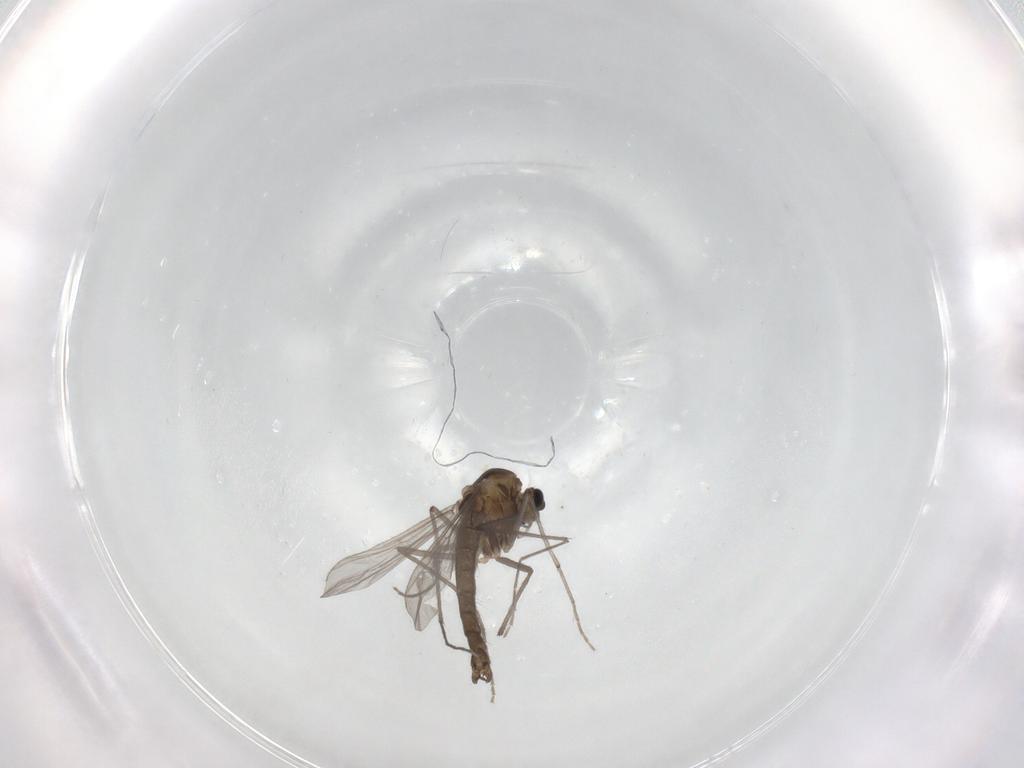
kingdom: Animalia
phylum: Arthropoda
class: Insecta
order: Diptera
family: Chironomidae
